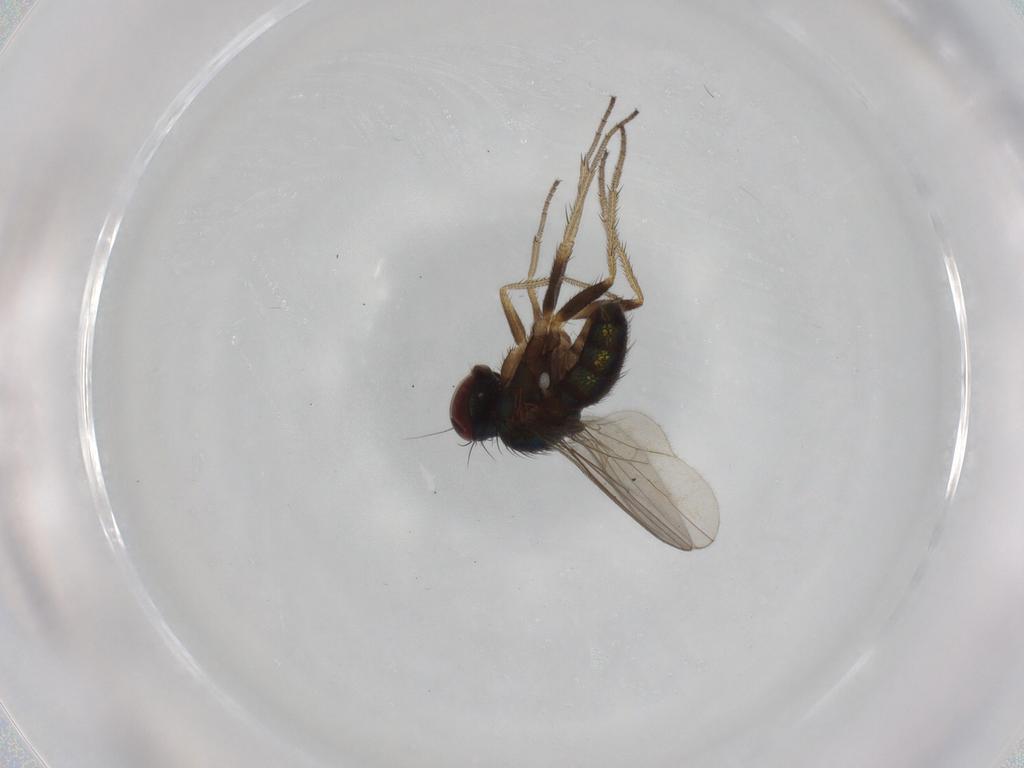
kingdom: Animalia
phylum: Arthropoda
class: Insecta
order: Diptera
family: Dolichopodidae
